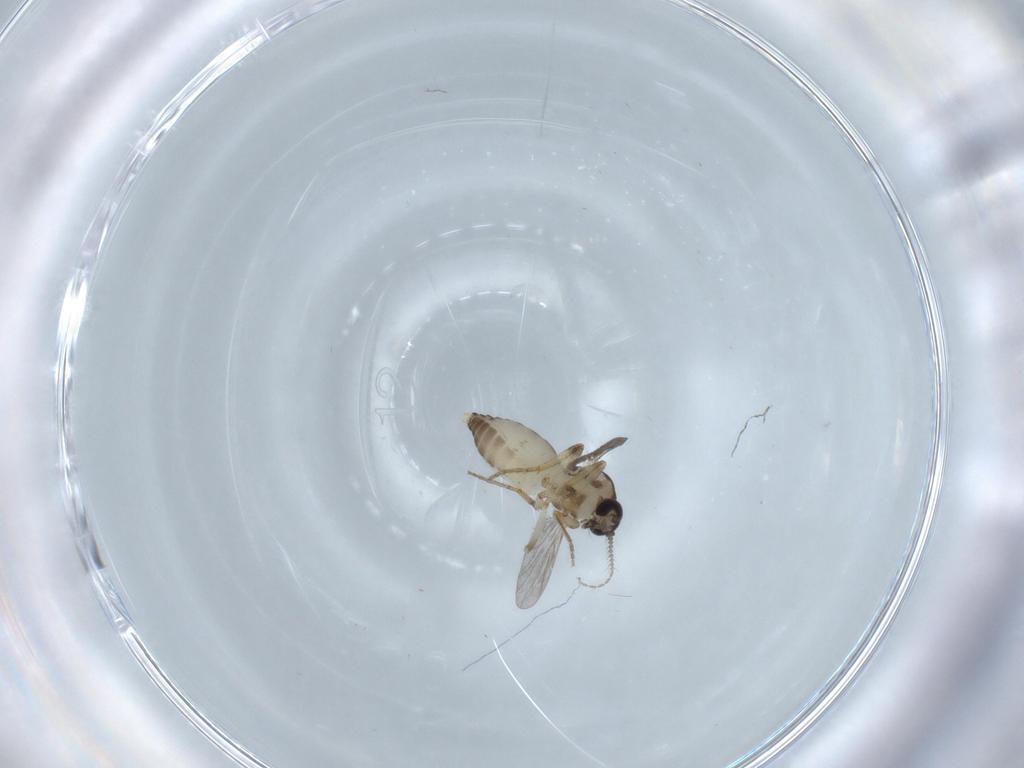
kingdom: Animalia
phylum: Arthropoda
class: Insecta
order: Diptera
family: Ceratopogonidae
